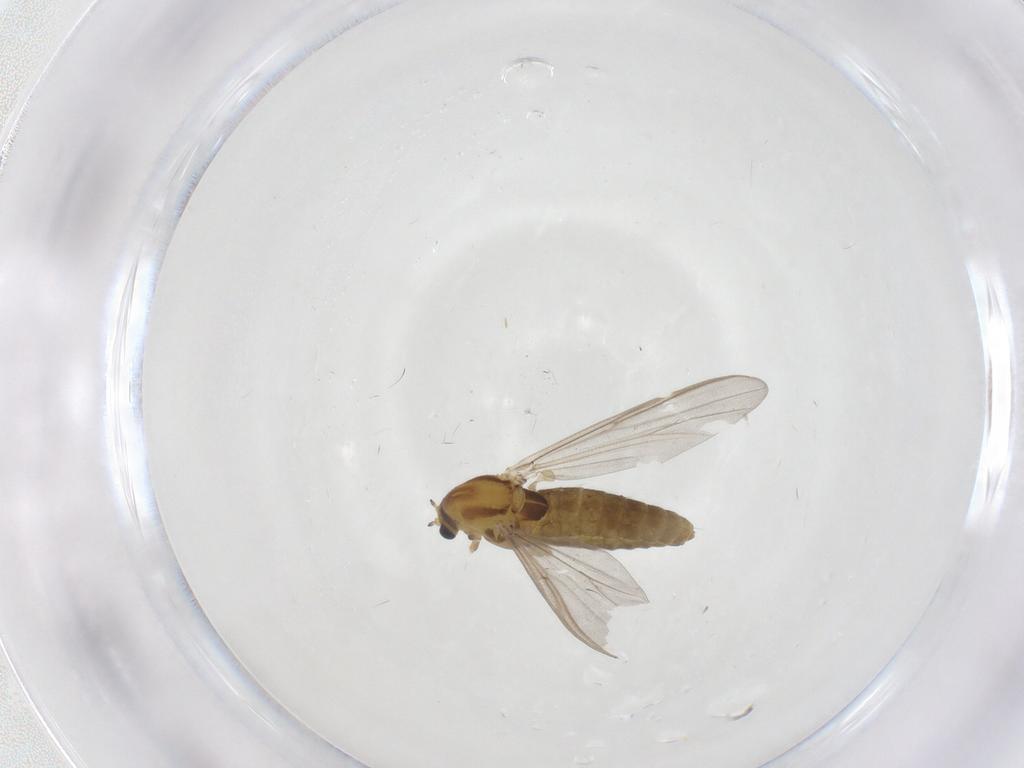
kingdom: Animalia
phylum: Arthropoda
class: Insecta
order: Diptera
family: Chironomidae
